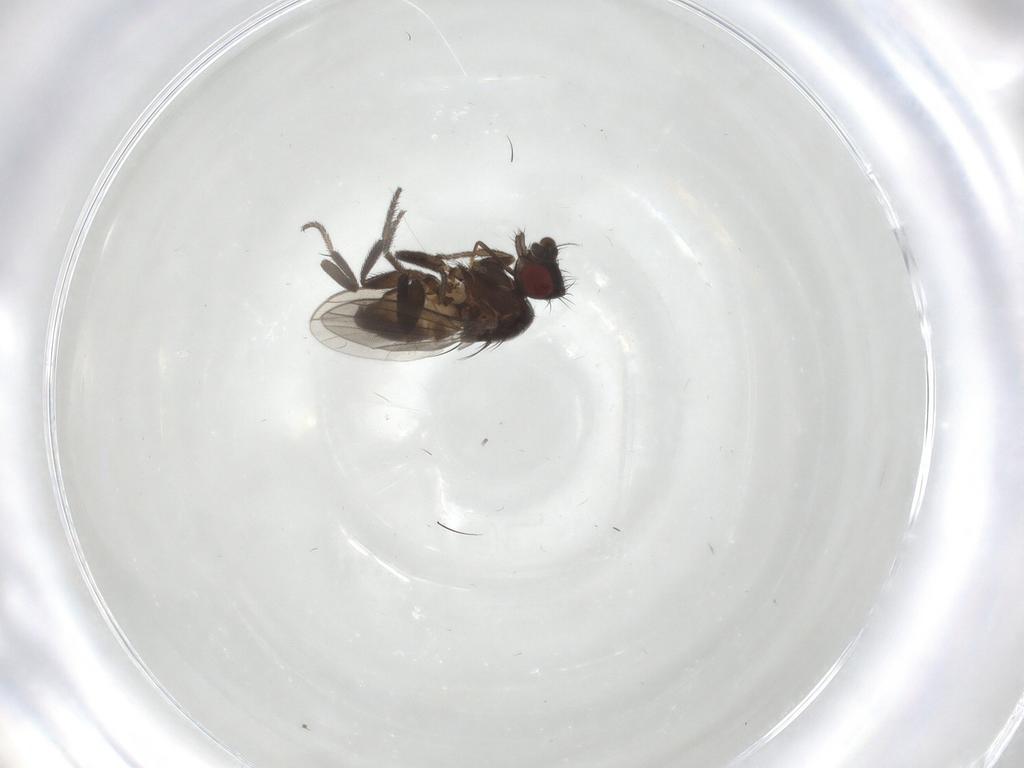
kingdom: Animalia
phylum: Arthropoda
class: Insecta
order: Diptera
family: Milichiidae
